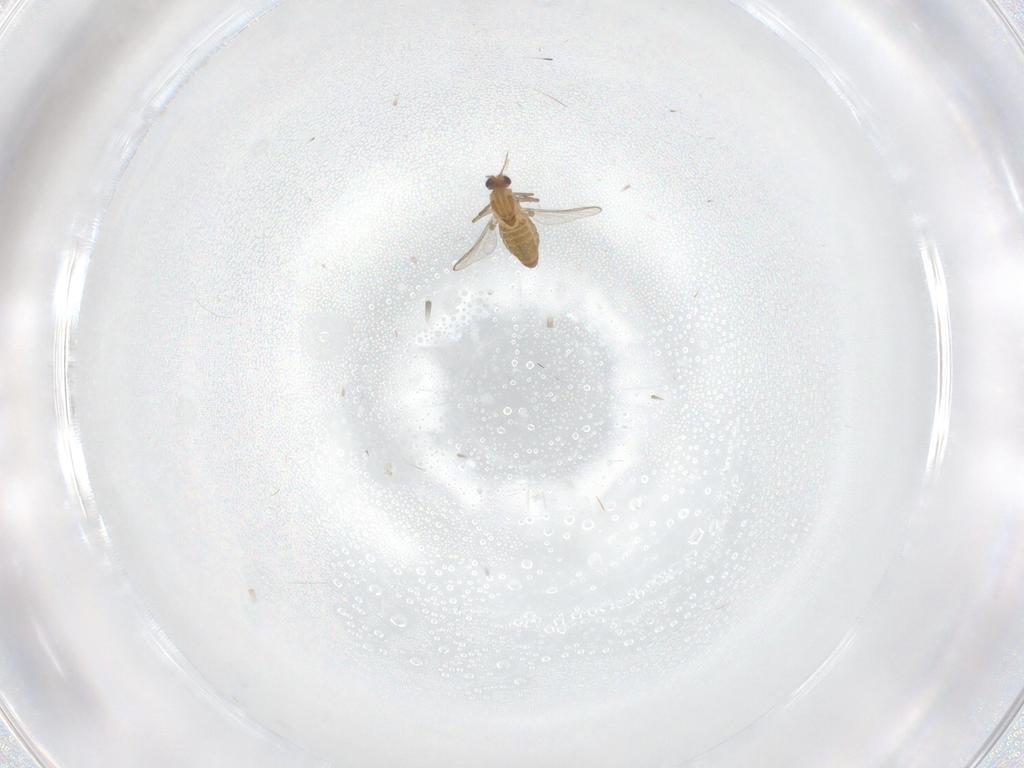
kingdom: Animalia
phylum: Arthropoda
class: Insecta
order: Diptera
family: Chironomidae
